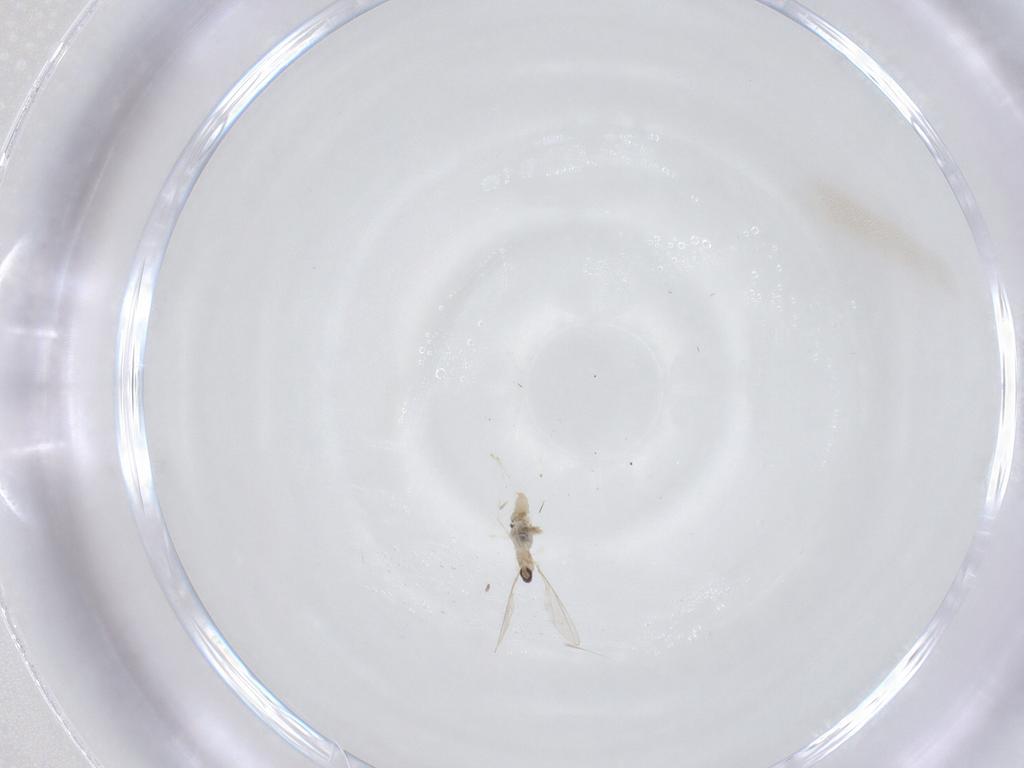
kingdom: Animalia
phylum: Arthropoda
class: Insecta
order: Diptera
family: Cecidomyiidae
